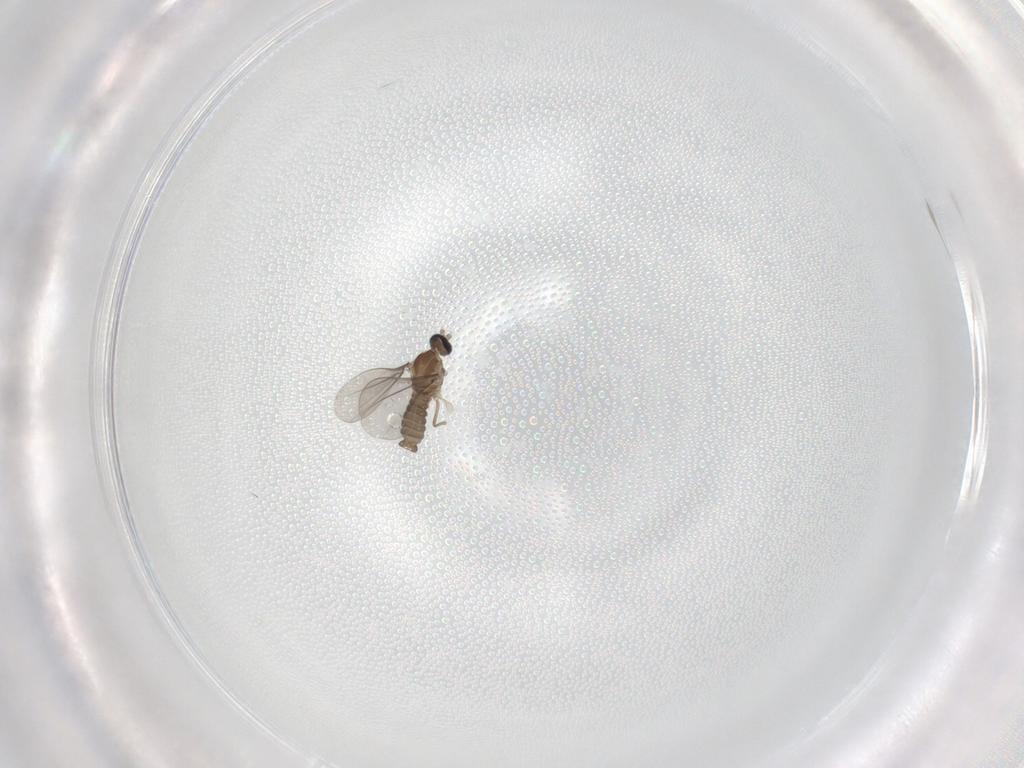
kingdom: Animalia
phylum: Arthropoda
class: Insecta
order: Diptera
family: Cecidomyiidae
